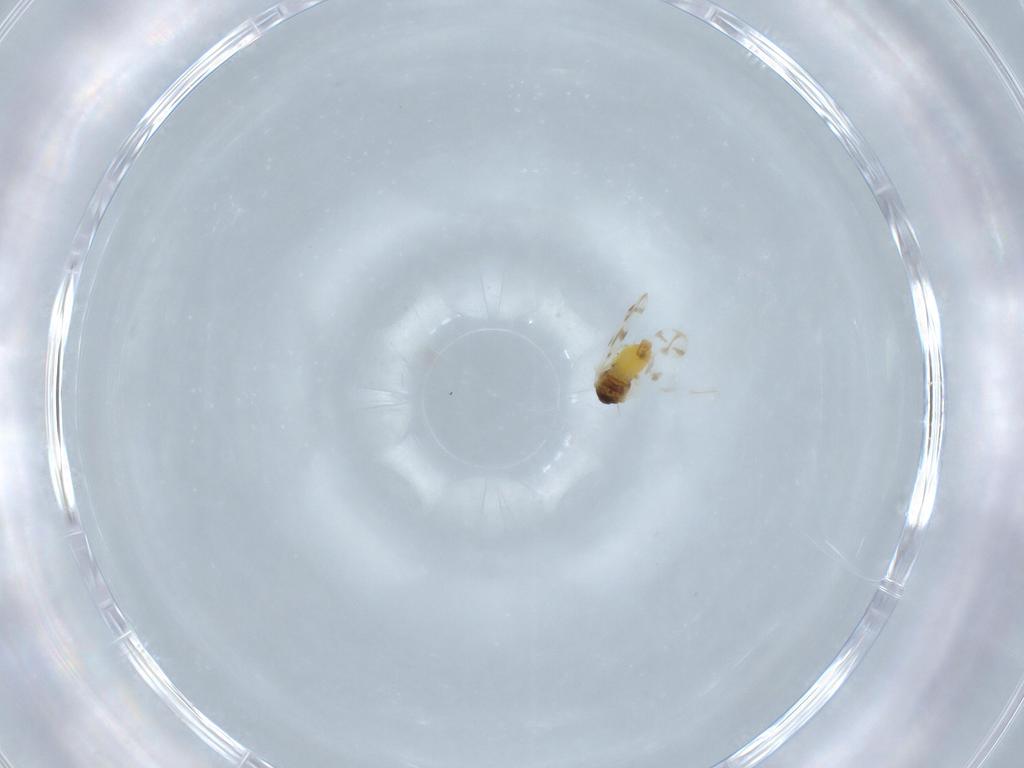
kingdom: Animalia
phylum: Arthropoda
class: Insecta
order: Hemiptera
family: Aleyrodidae
